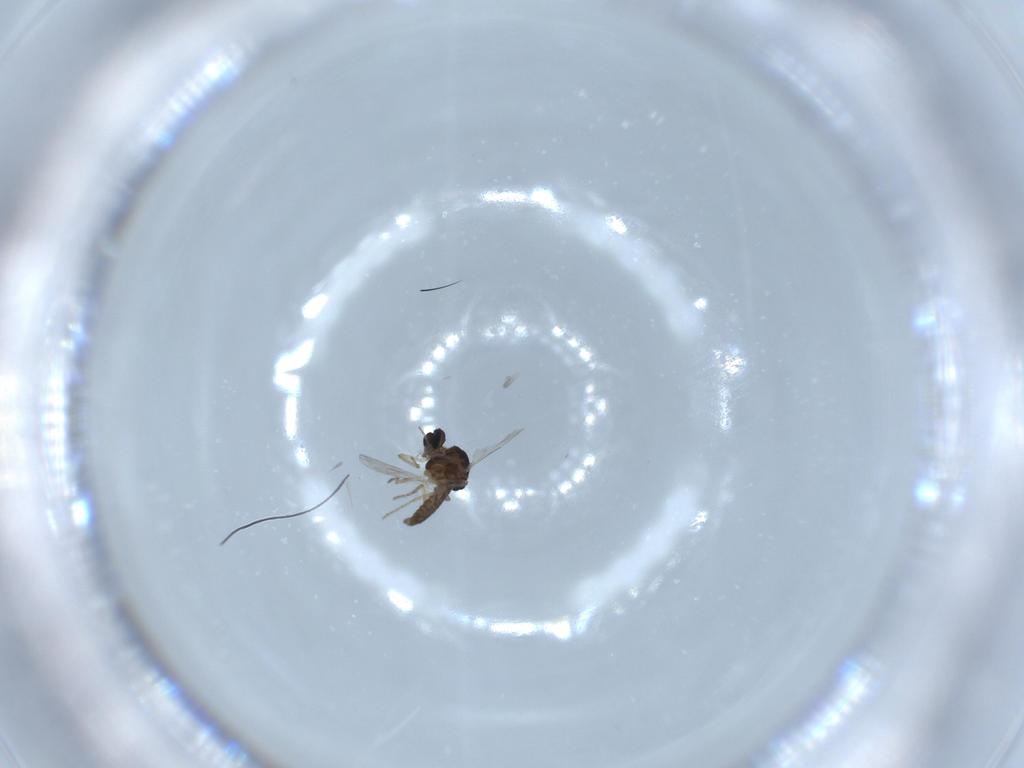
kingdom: Animalia
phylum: Arthropoda
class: Insecta
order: Diptera
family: Ceratopogonidae
